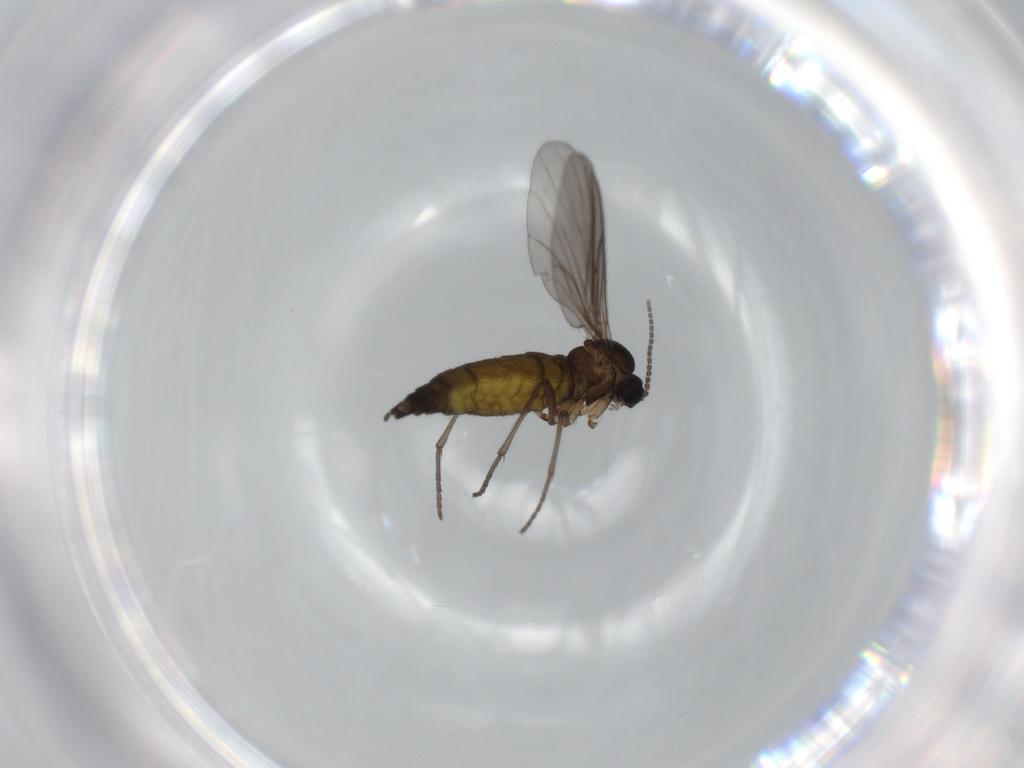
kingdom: Animalia
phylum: Arthropoda
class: Insecta
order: Diptera
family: Sciaridae
